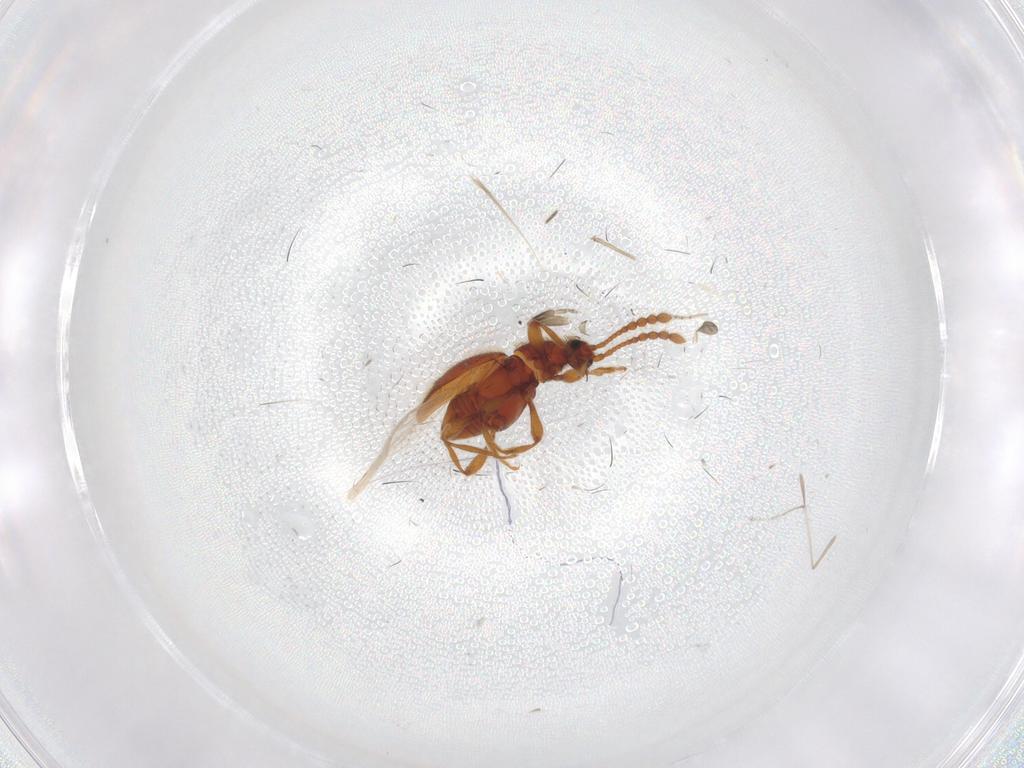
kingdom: Animalia
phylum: Arthropoda
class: Insecta
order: Coleoptera
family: Staphylinidae
